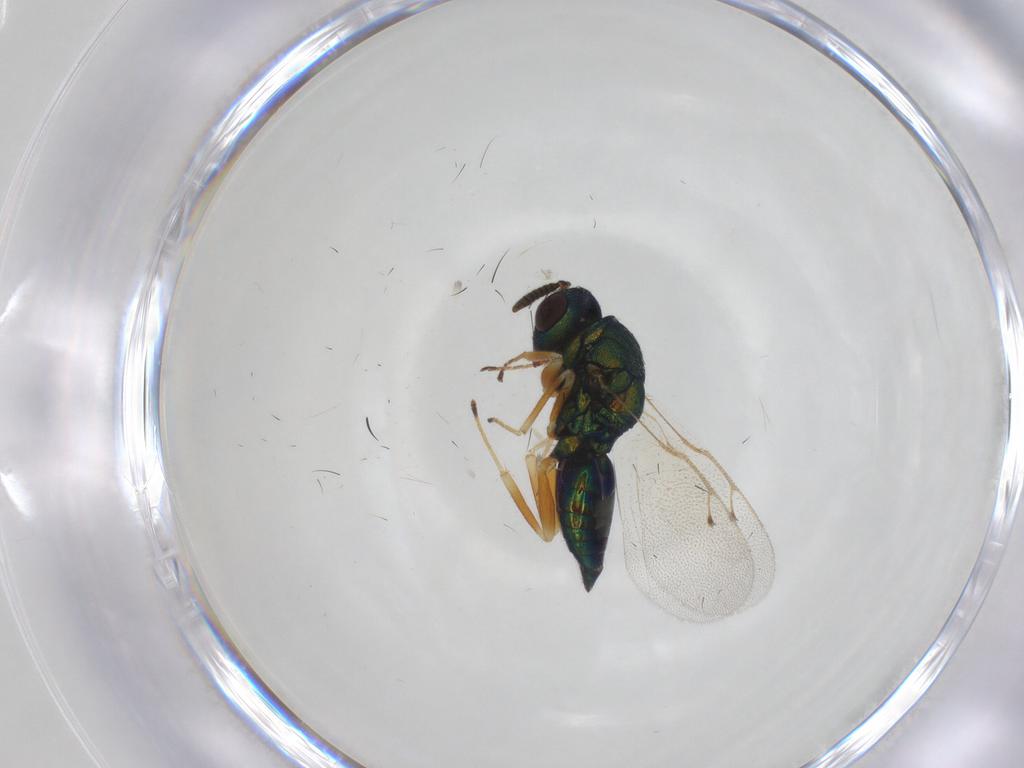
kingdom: Animalia
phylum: Arthropoda
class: Insecta
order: Hymenoptera
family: Pteromalidae
